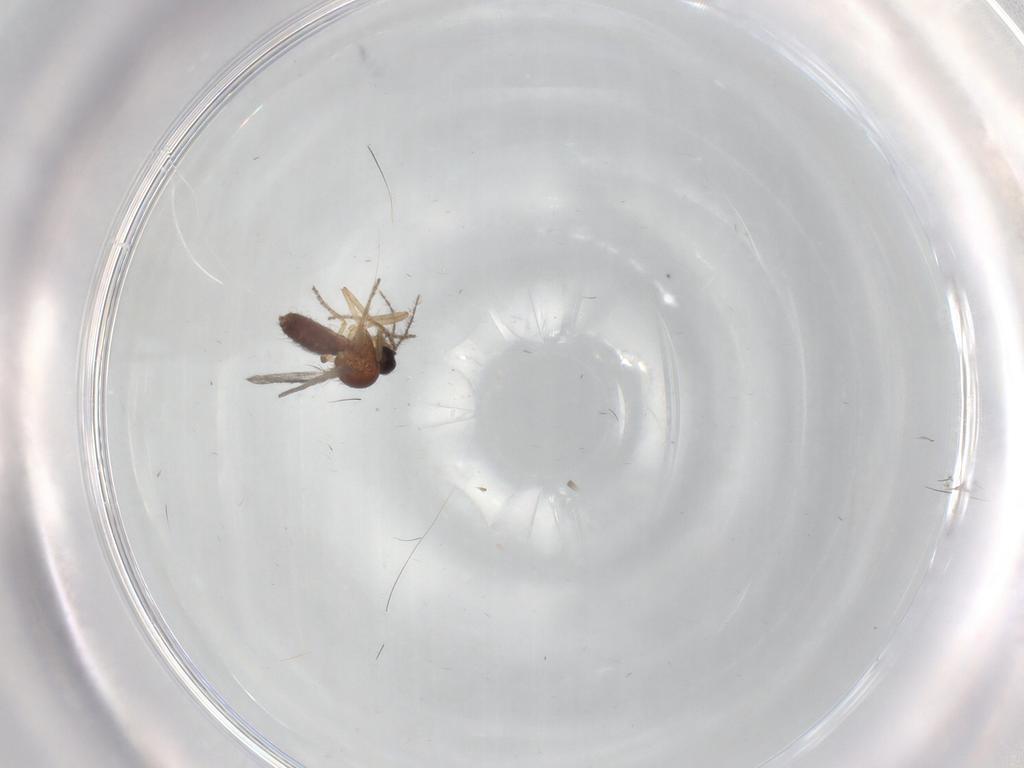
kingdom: Animalia
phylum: Arthropoda
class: Insecta
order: Diptera
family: Ceratopogonidae
